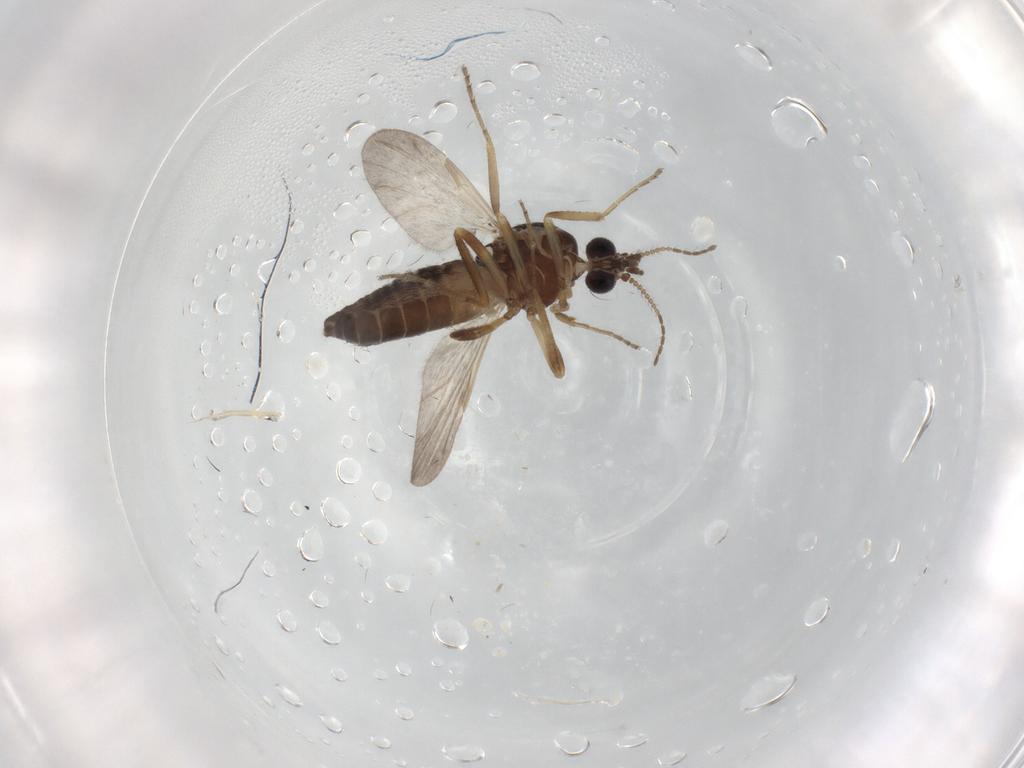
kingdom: Animalia
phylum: Arthropoda
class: Insecta
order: Diptera
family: Ceratopogonidae
